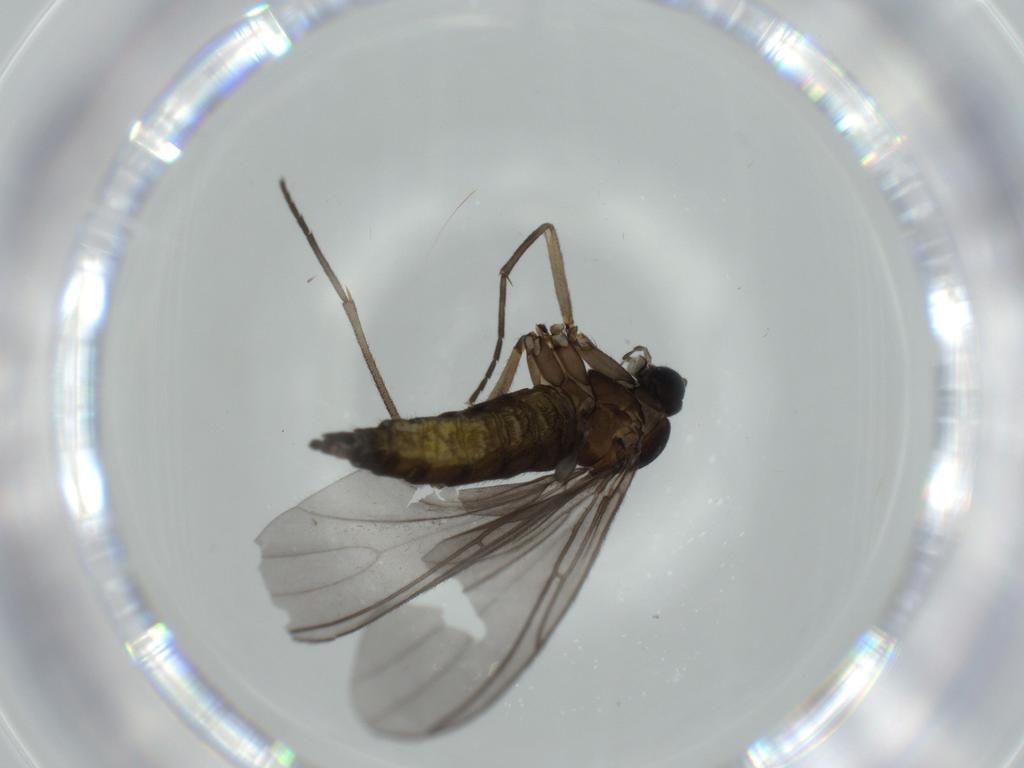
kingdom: Animalia
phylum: Arthropoda
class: Insecta
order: Diptera
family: Sciaridae
